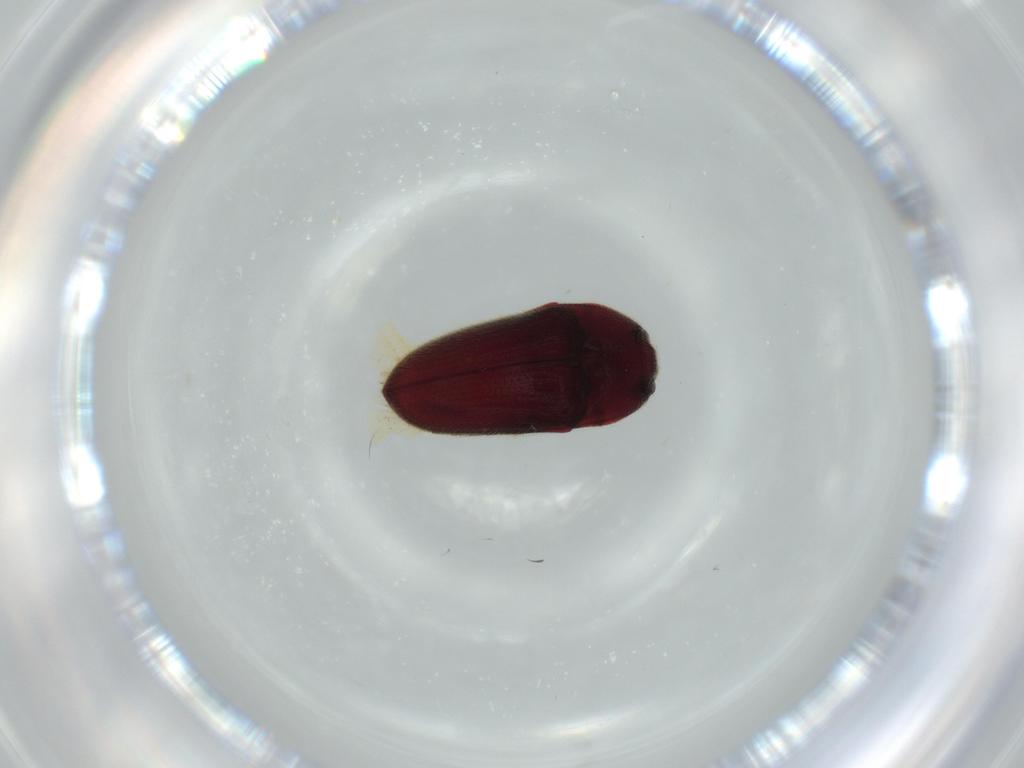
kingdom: Animalia
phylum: Arthropoda
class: Insecta
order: Coleoptera
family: Throscidae
